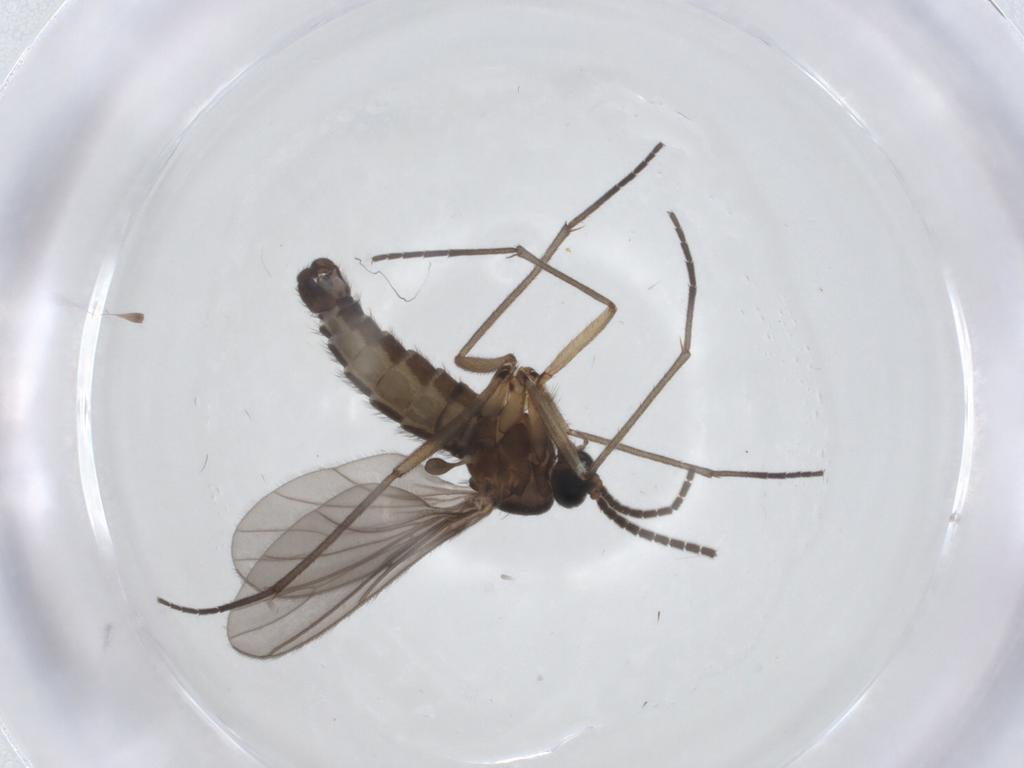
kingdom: Animalia
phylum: Arthropoda
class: Insecta
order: Diptera
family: Sciaridae
